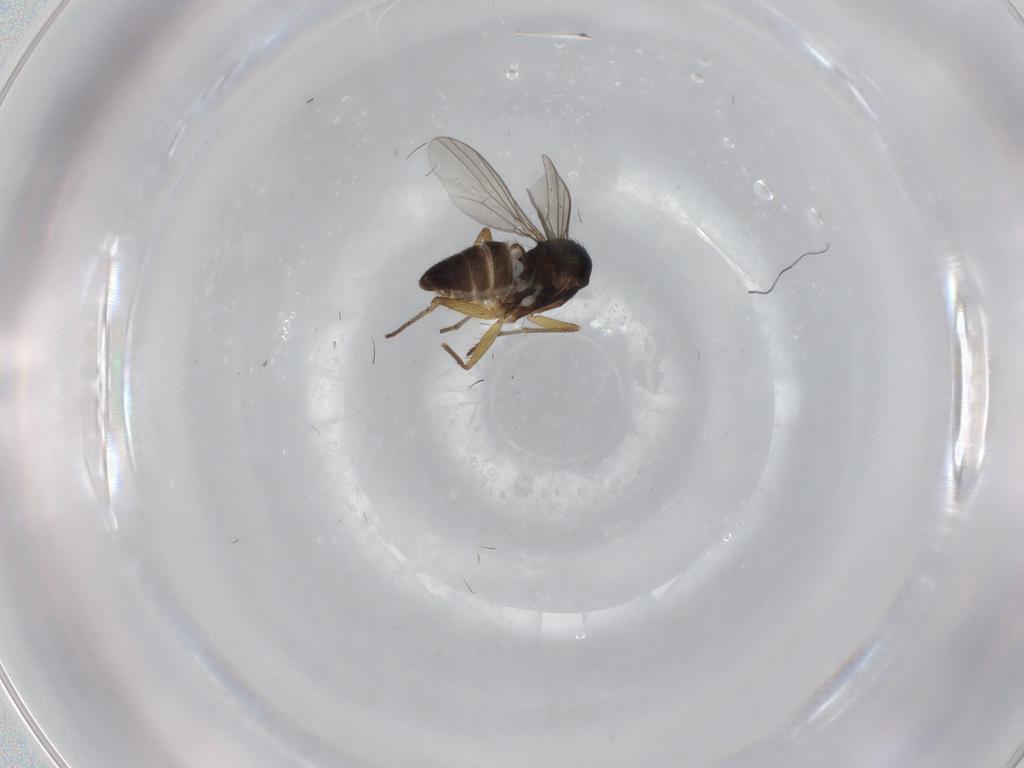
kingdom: Animalia
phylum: Arthropoda
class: Insecta
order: Diptera
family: Dolichopodidae
